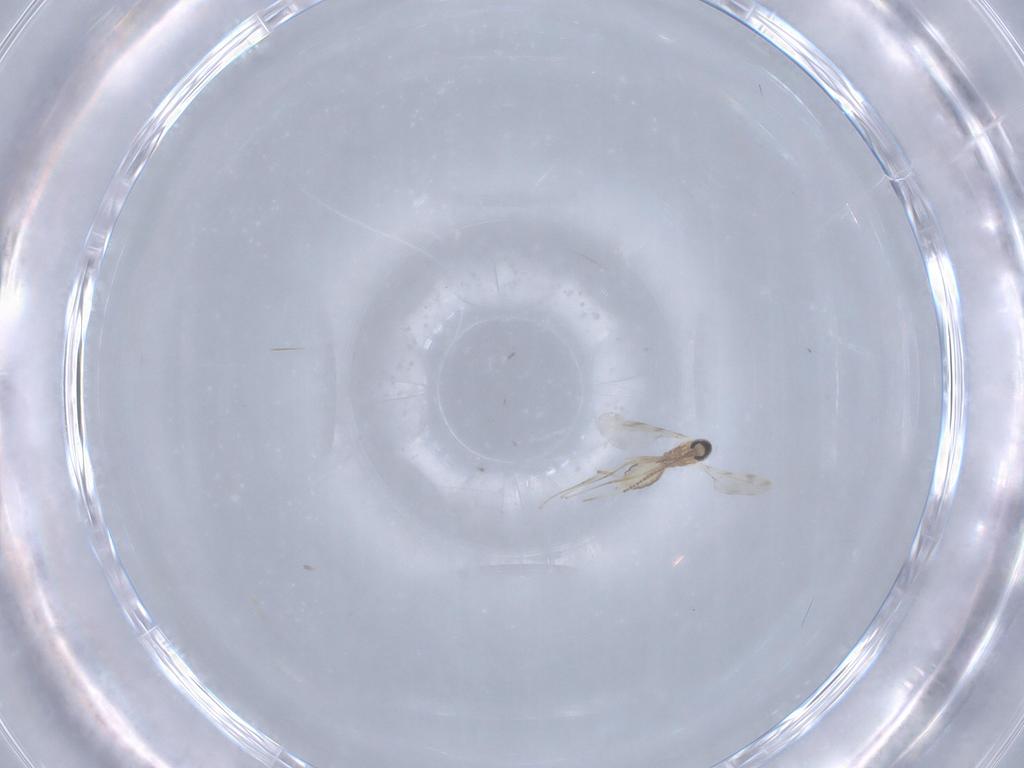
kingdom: Animalia
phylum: Arthropoda
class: Insecta
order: Diptera
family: Cecidomyiidae
